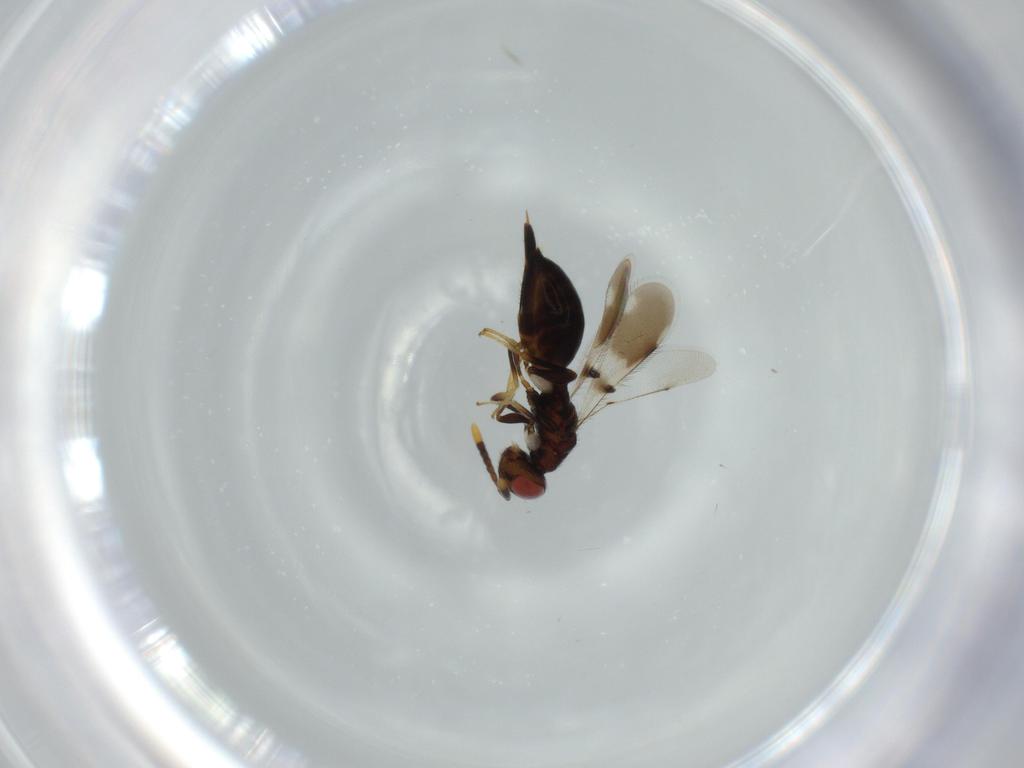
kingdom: Animalia
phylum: Arthropoda
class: Insecta
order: Hymenoptera
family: Cerocephalidae
